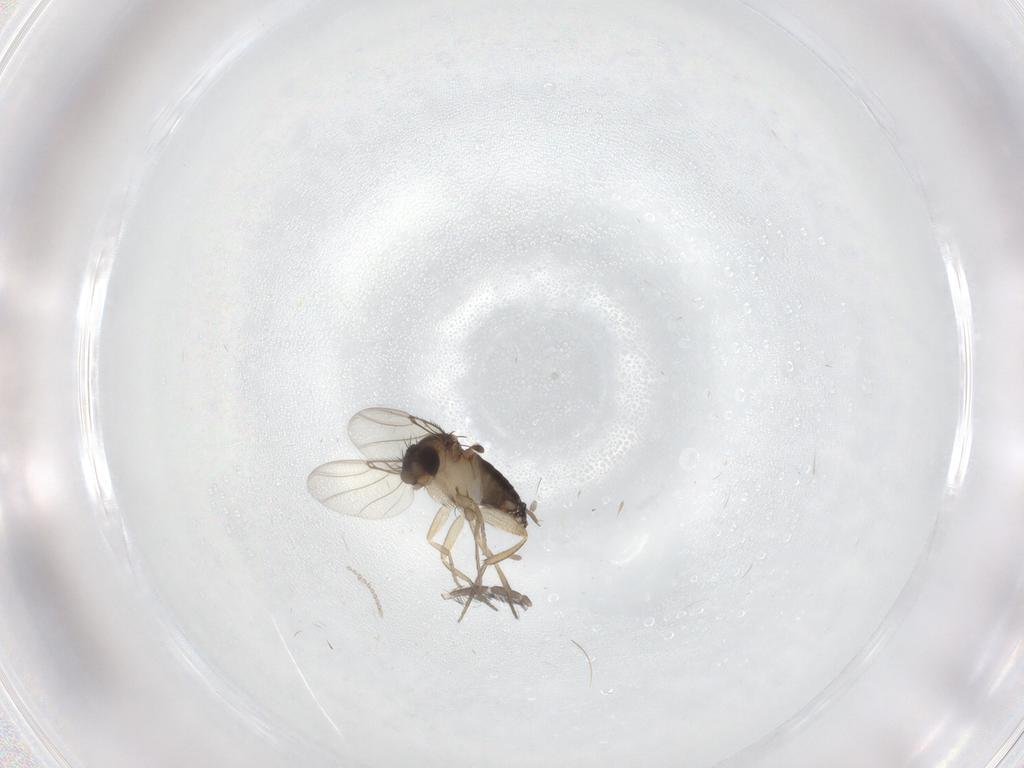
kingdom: Animalia
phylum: Arthropoda
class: Insecta
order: Diptera
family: Cecidomyiidae
